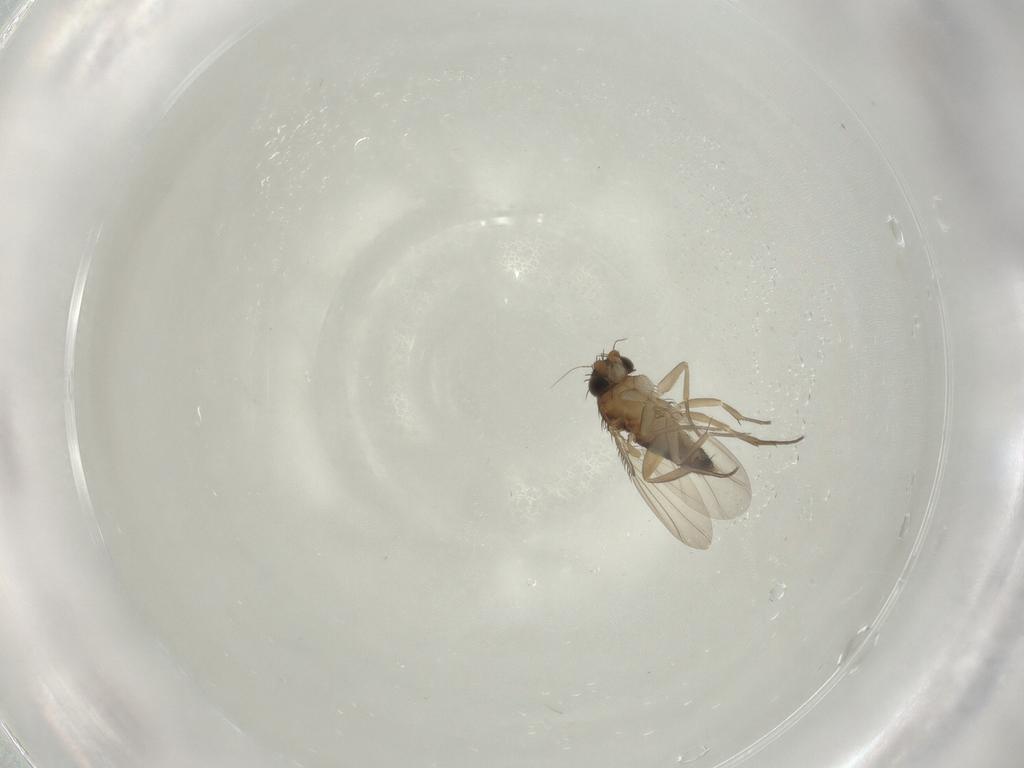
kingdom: Animalia
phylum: Arthropoda
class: Insecta
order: Diptera
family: Phoridae
